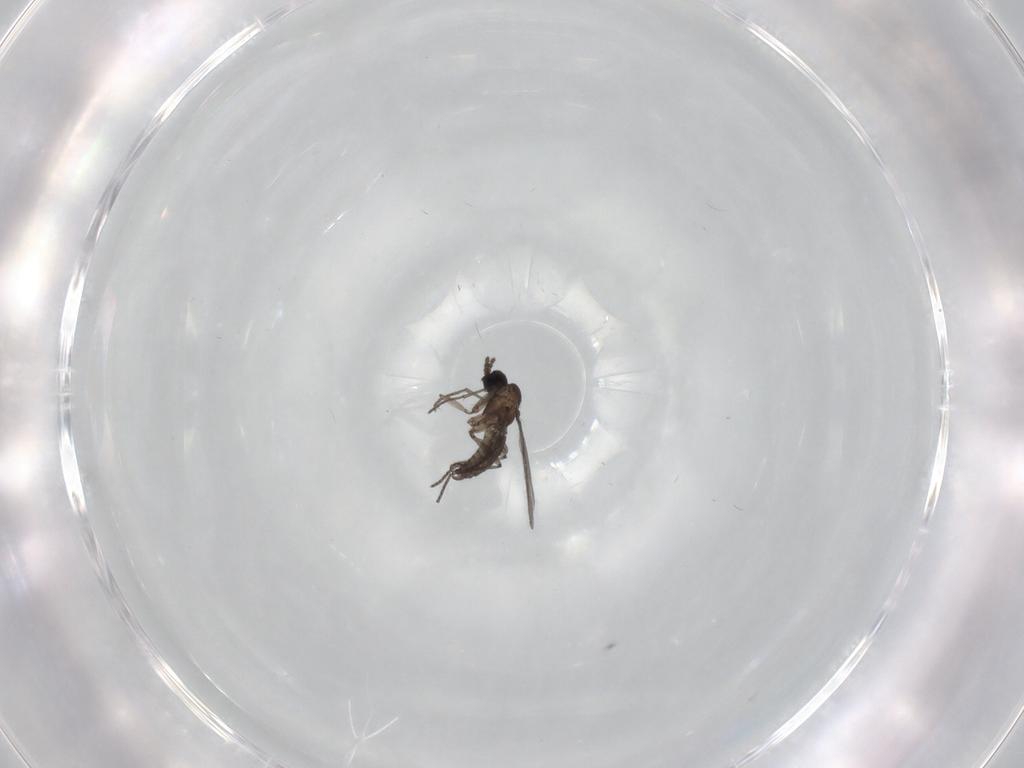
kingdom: Animalia
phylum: Arthropoda
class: Insecta
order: Diptera
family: Sciaridae
